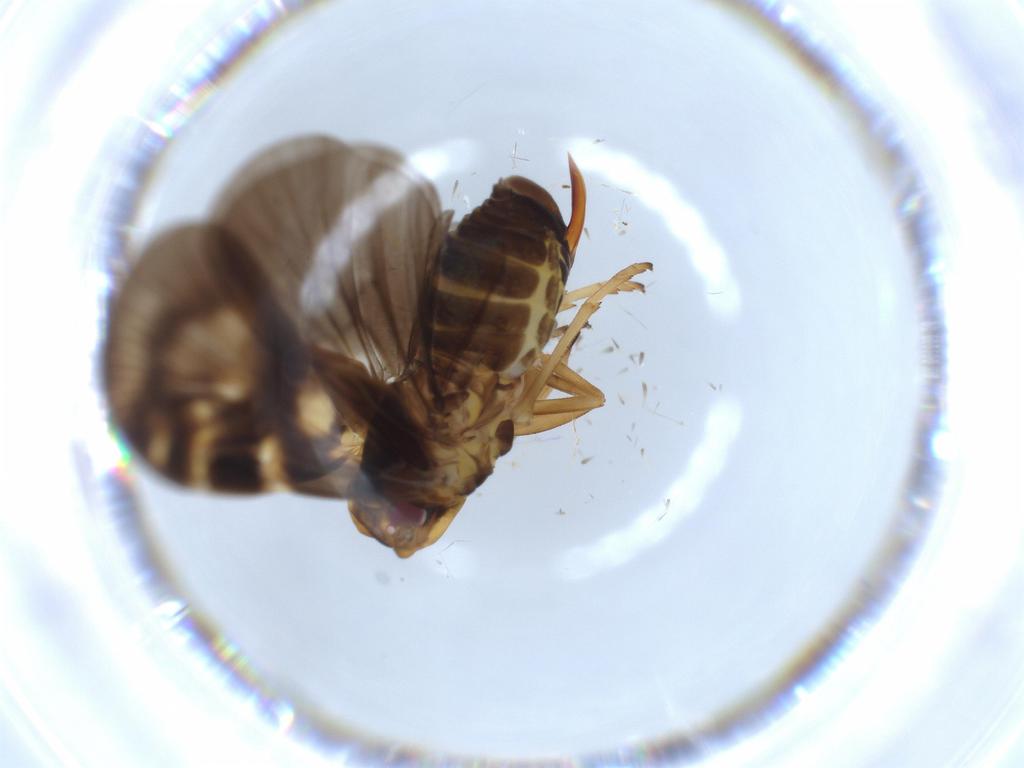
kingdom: Animalia
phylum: Arthropoda
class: Insecta
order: Hemiptera
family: Cixiidae
